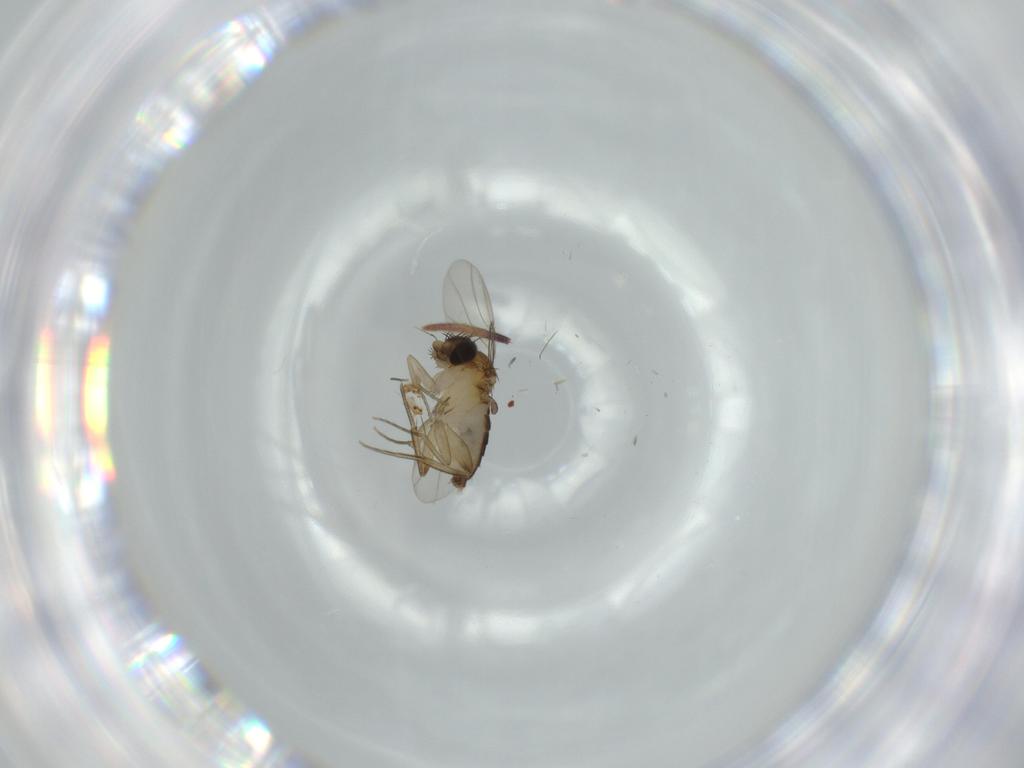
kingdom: Animalia
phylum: Arthropoda
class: Insecta
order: Diptera
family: Phoridae
